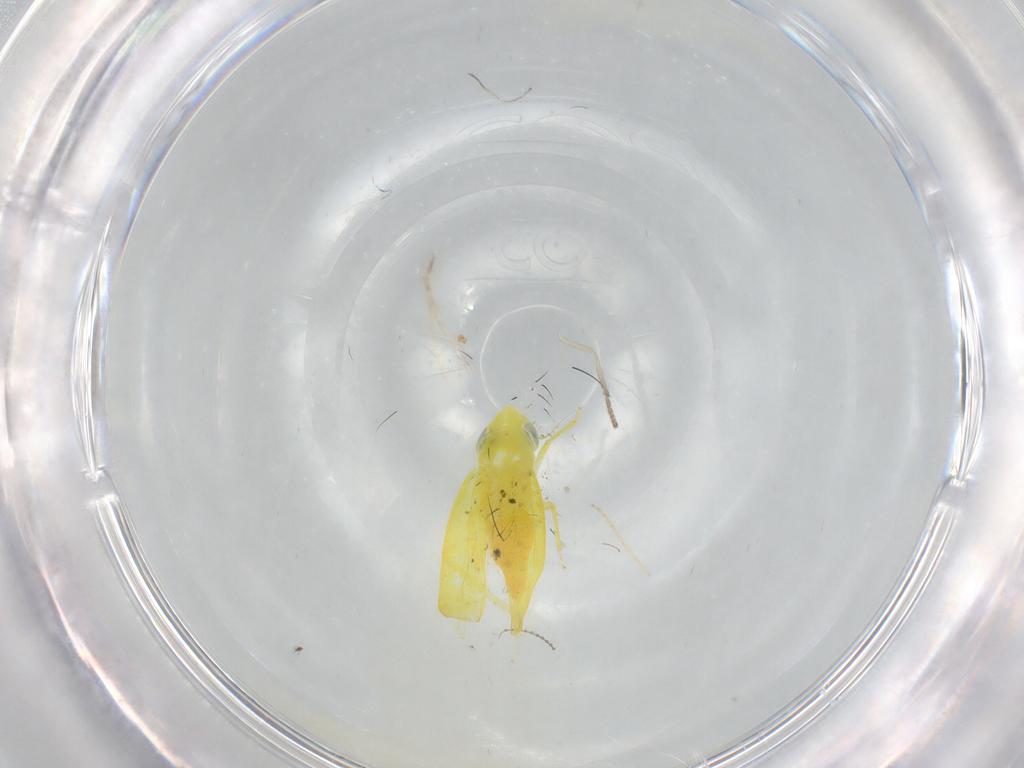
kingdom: Animalia
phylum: Arthropoda
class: Insecta
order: Hemiptera
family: Cicadellidae
